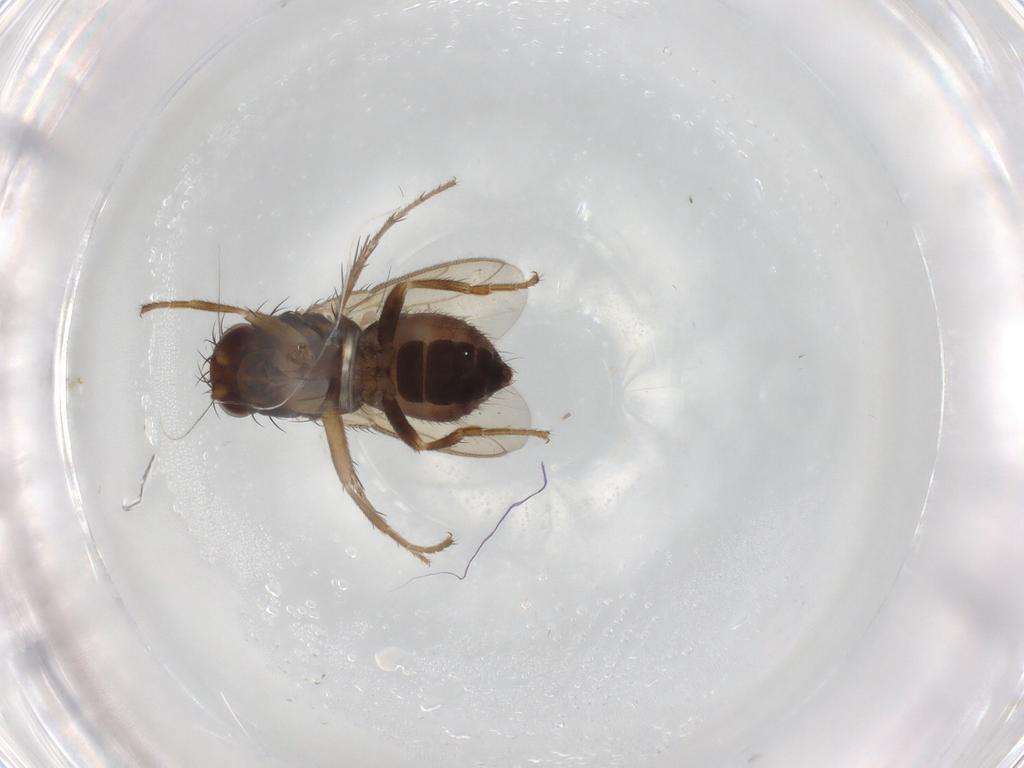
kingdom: Animalia
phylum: Arthropoda
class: Insecta
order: Diptera
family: Sphaeroceridae
